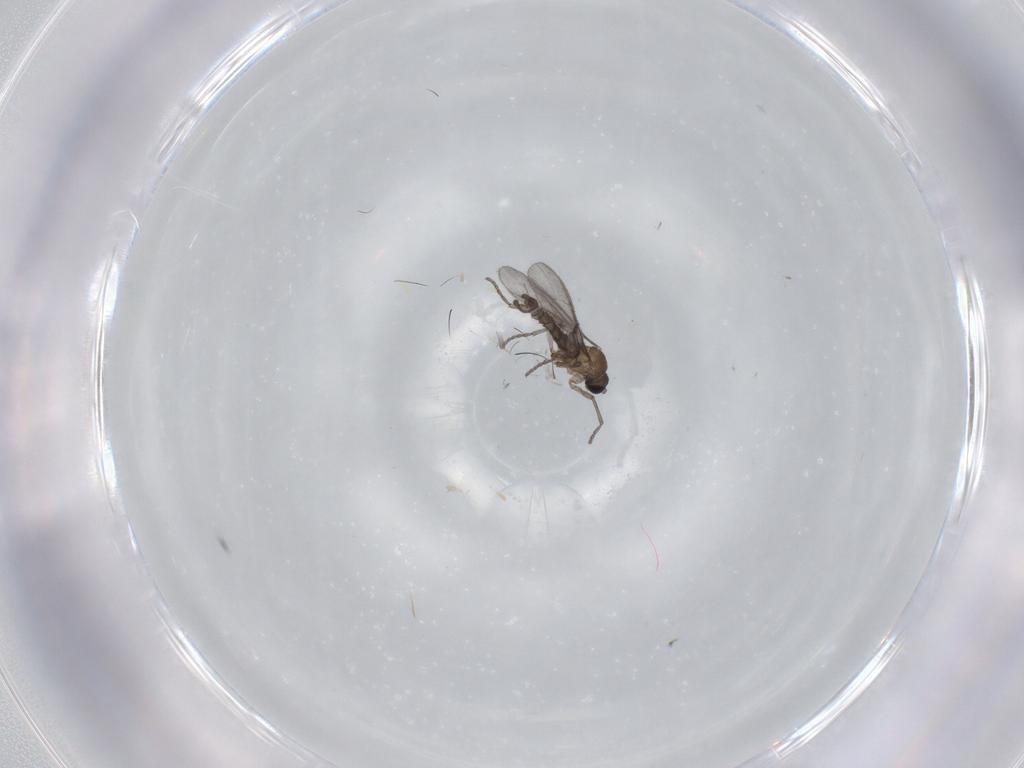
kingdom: Animalia
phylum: Arthropoda
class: Insecta
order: Diptera
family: Sciaridae
